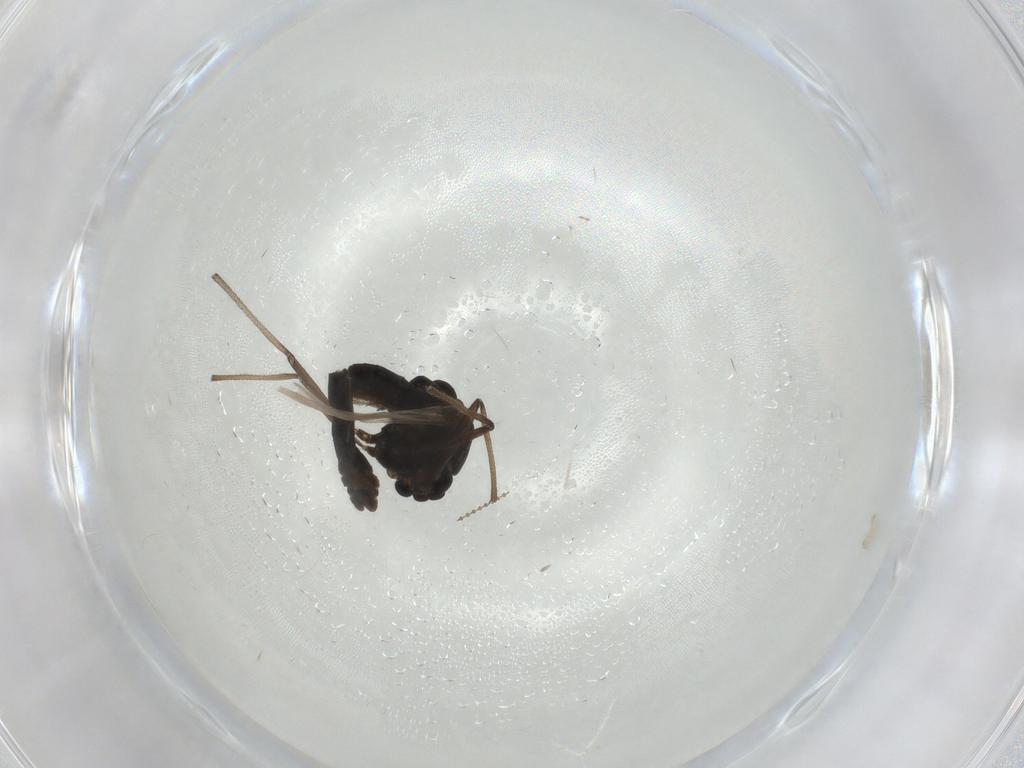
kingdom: Animalia
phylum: Arthropoda
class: Insecta
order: Diptera
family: Chironomidae
